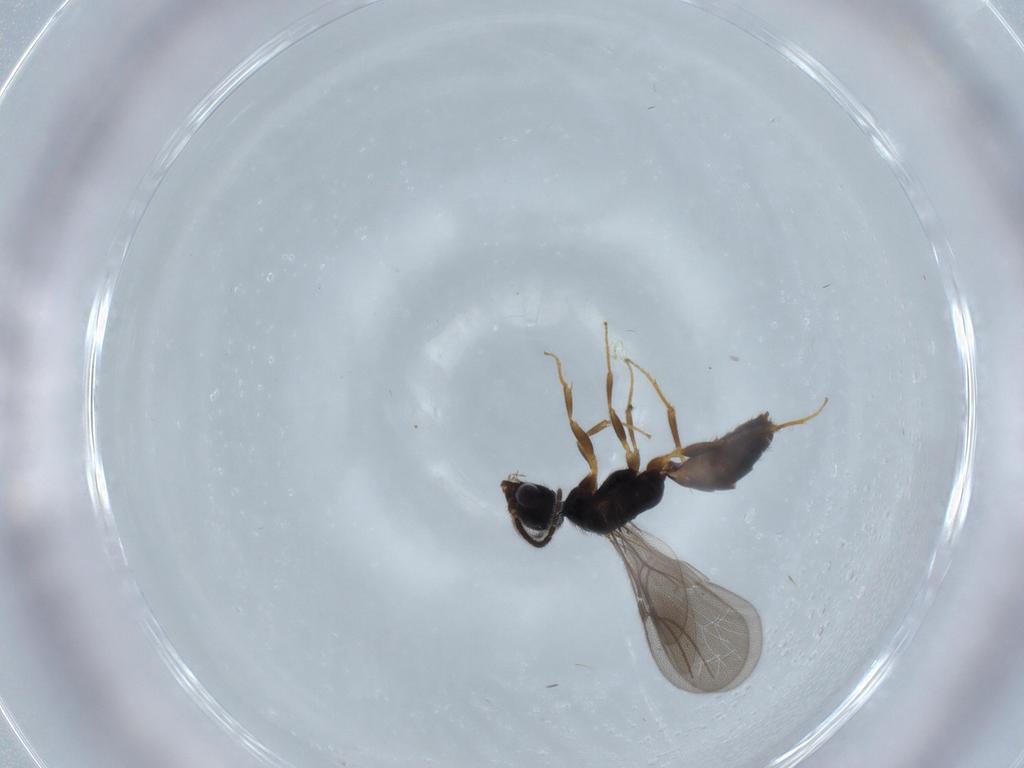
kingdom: Animalia
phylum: Arthropoda
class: Insecta
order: Hymenoptera
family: Bethylidae
